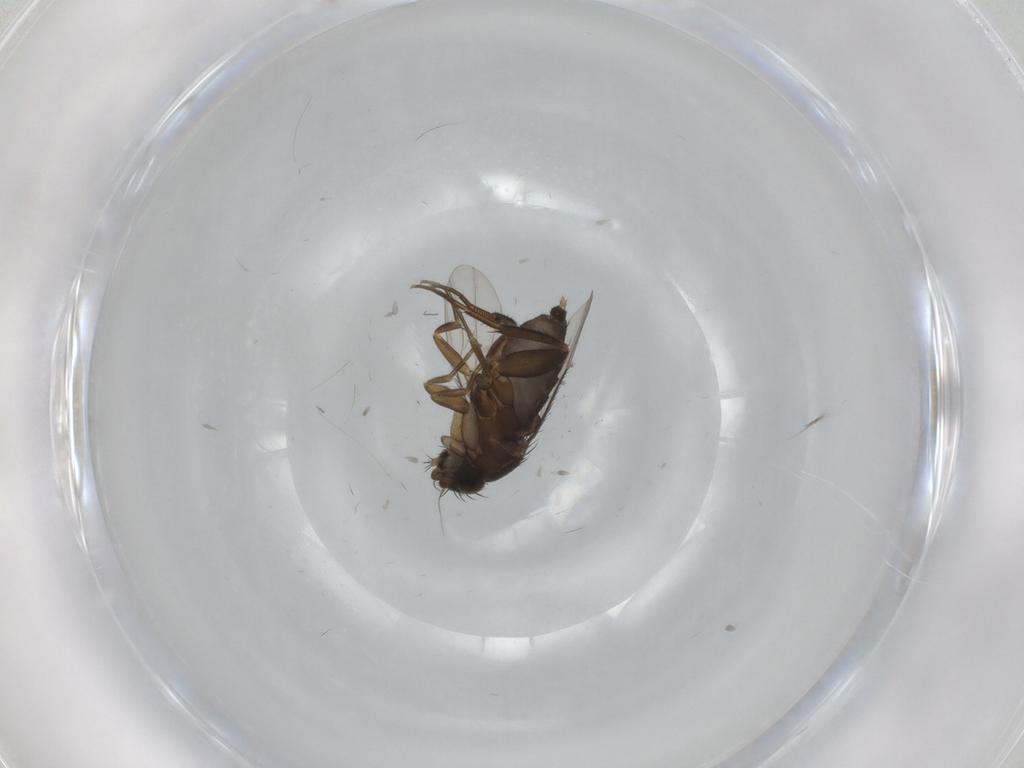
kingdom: Animalia
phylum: Arthropoda
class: Insecta
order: Diptera
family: Phoridae
